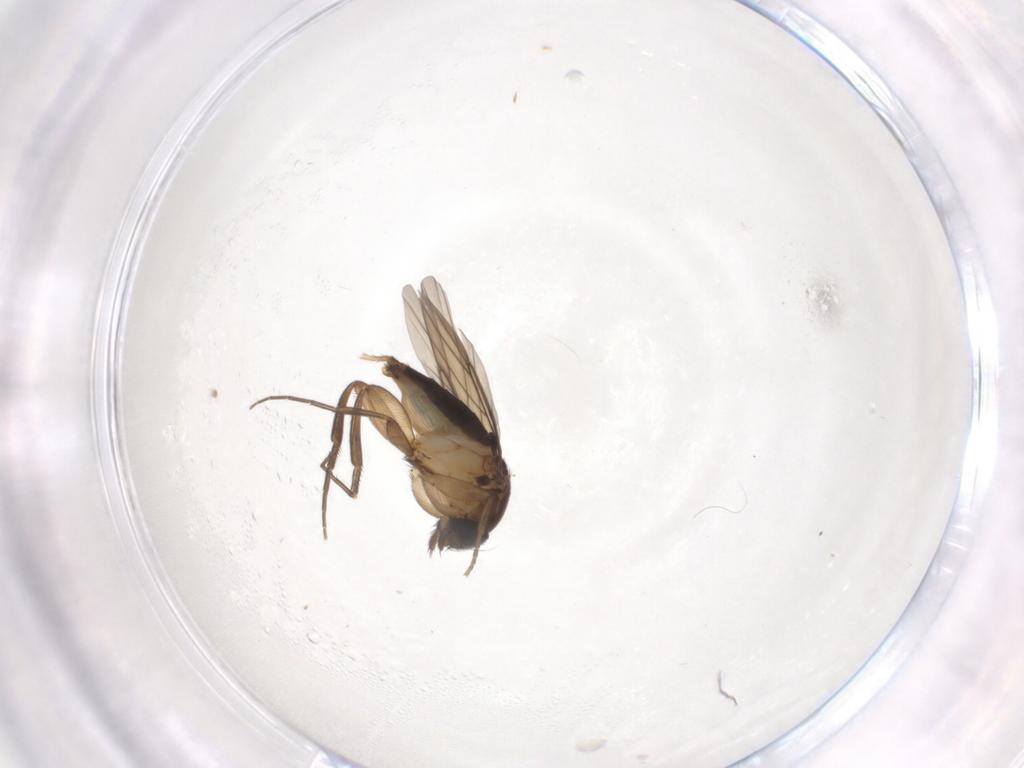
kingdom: Animalia
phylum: Arthropoda
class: Insecta
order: Diptera
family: Phoridae
